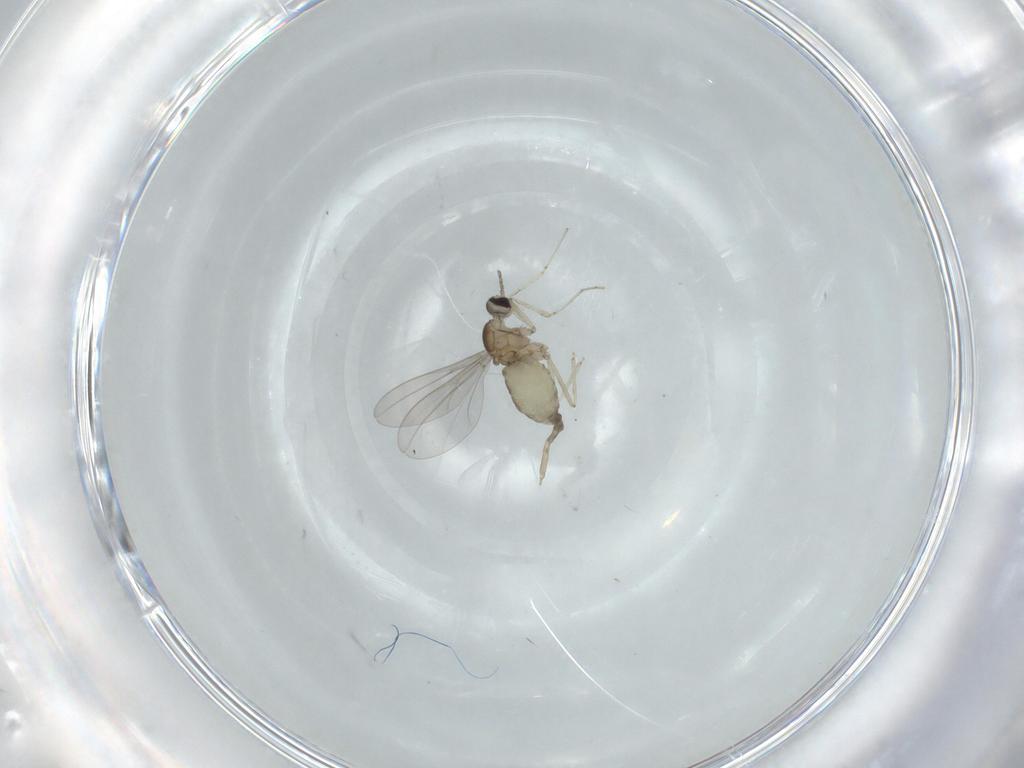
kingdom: Animalia
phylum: Arthropoda
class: Insecta
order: Diptera
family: Cecidomyiidae
